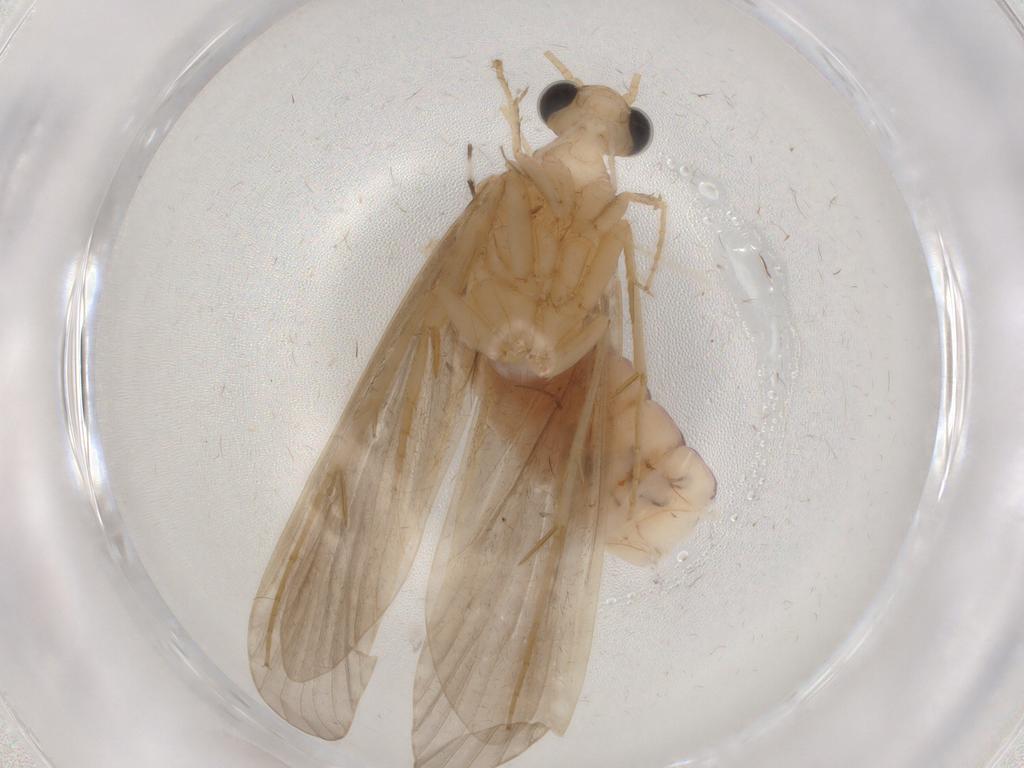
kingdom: Animalia
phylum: Arthropoda
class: Insecta
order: Trichoptera
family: Ecnomidae
